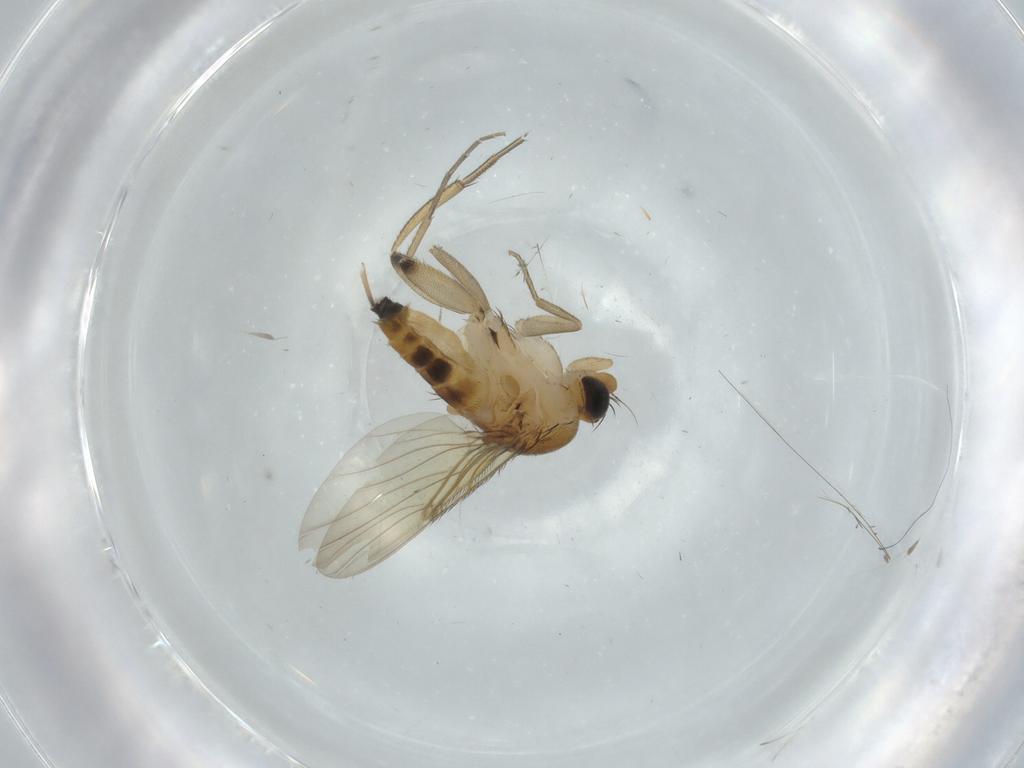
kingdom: Animalia
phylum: Arthropoda
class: Insecta
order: Diptera
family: Phoridae
